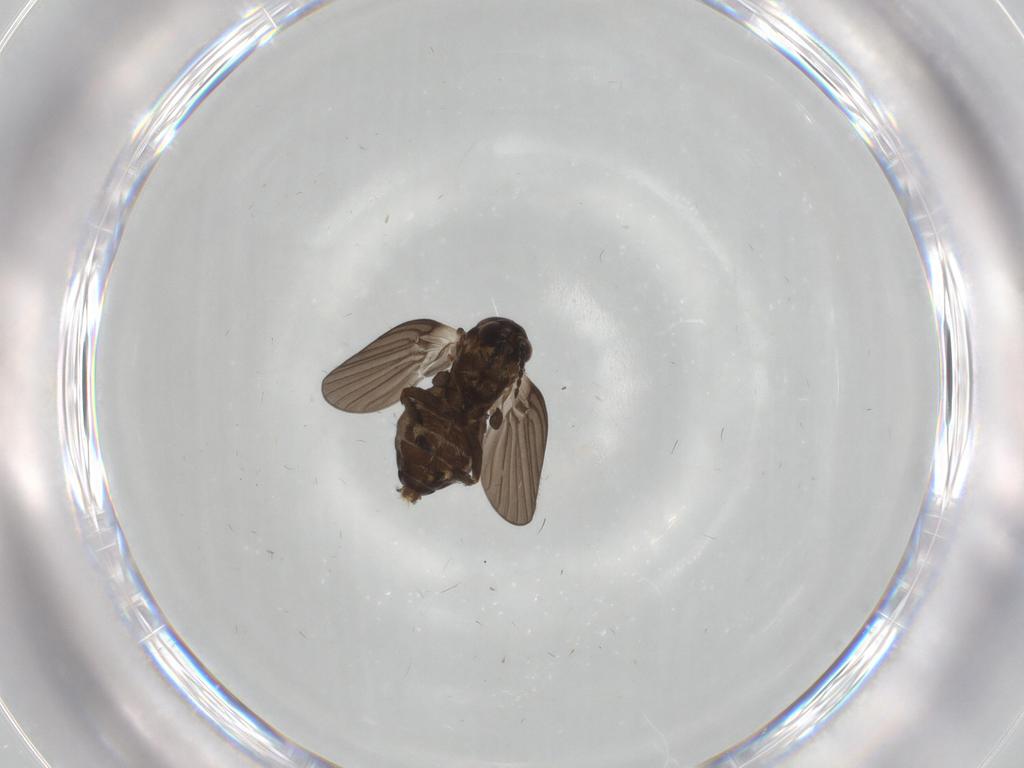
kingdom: Animalia
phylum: Arthropoda
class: Insecta
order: Diptera
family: Psychodidae
